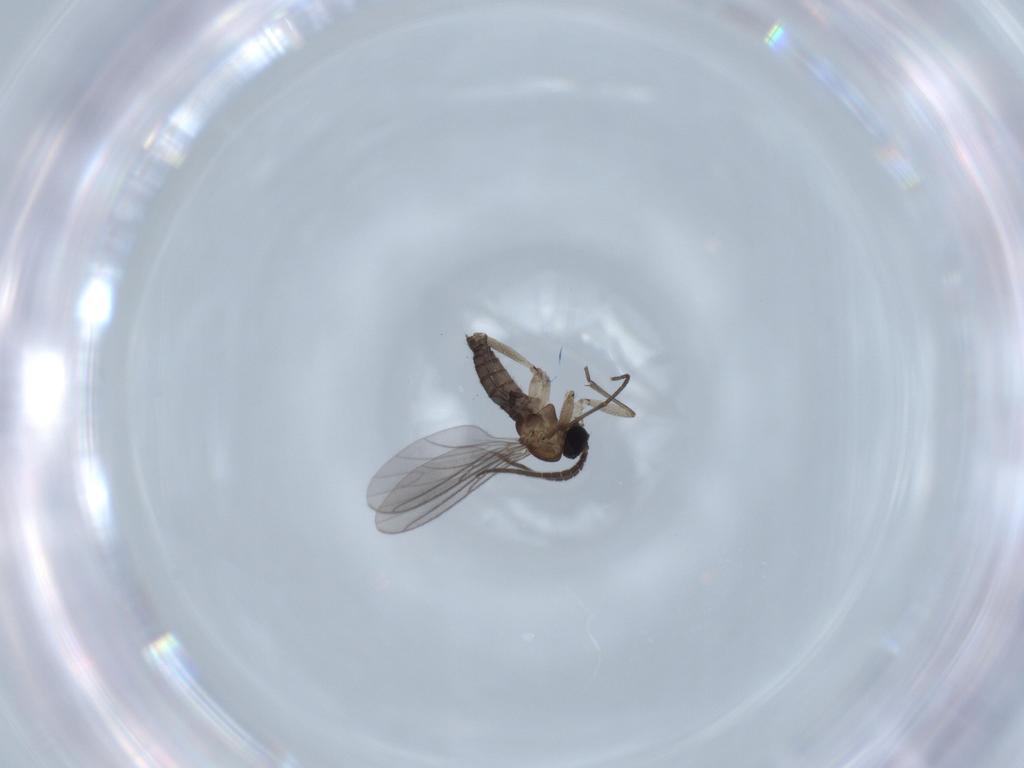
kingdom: Animalia
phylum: Arthropoda
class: Insecta
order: Diptera
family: Sciaridae
